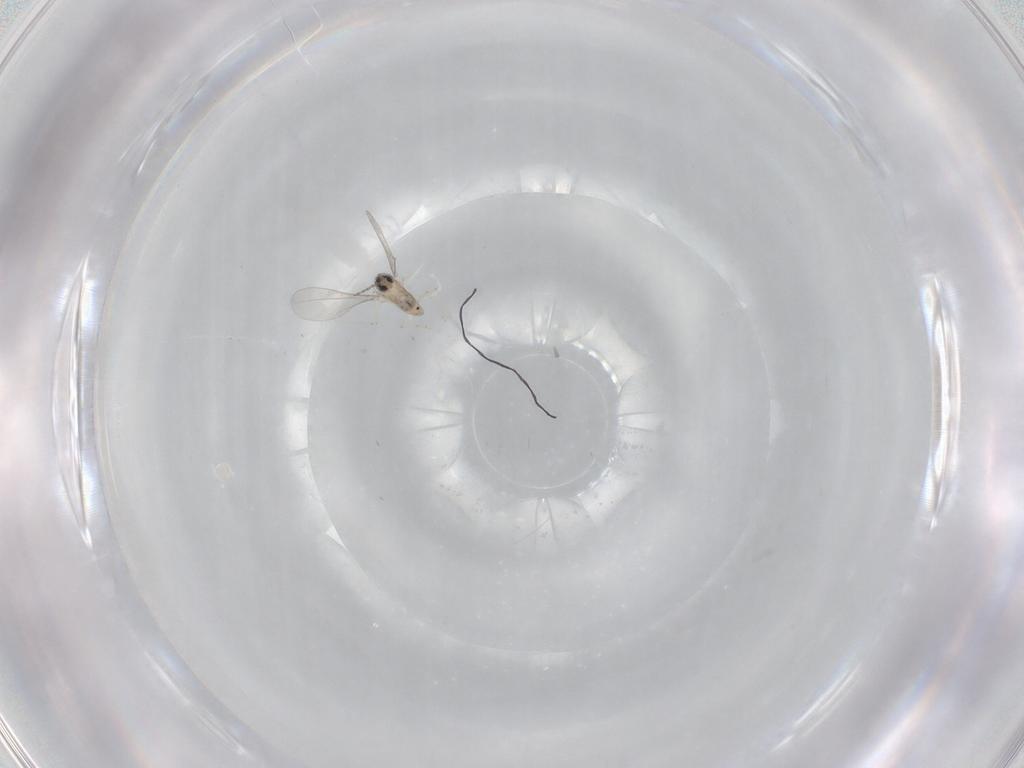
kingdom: Animalia
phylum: Arthropoda
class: Insecta
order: Diptera
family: Cecidomyiidae
